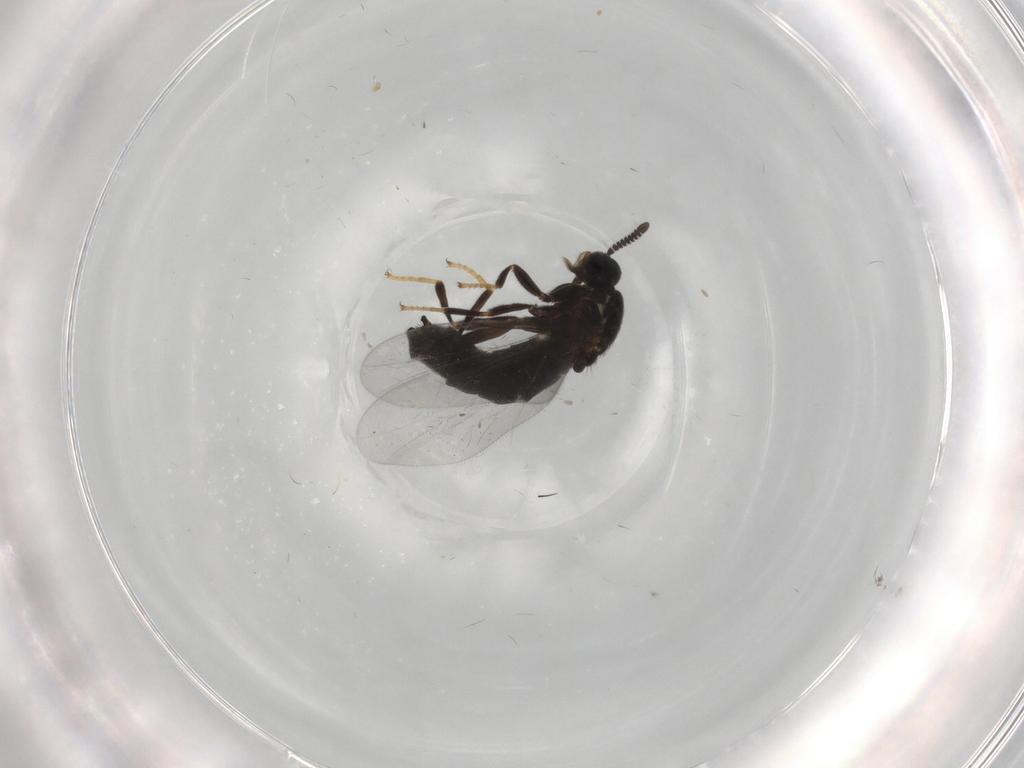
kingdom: Animalia
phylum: Arthropoda
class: Insecta
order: Diptera
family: Scatopsidae
